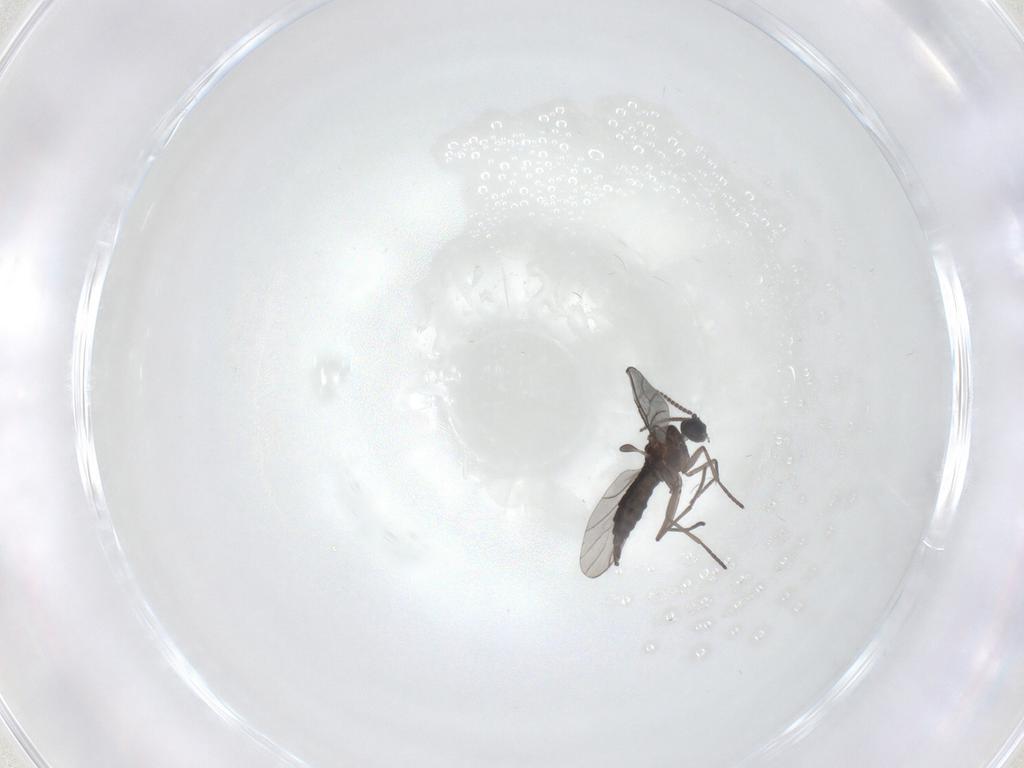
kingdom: Animalia
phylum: Arthropoda
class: Insecta
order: Diptera
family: Sciaridae
